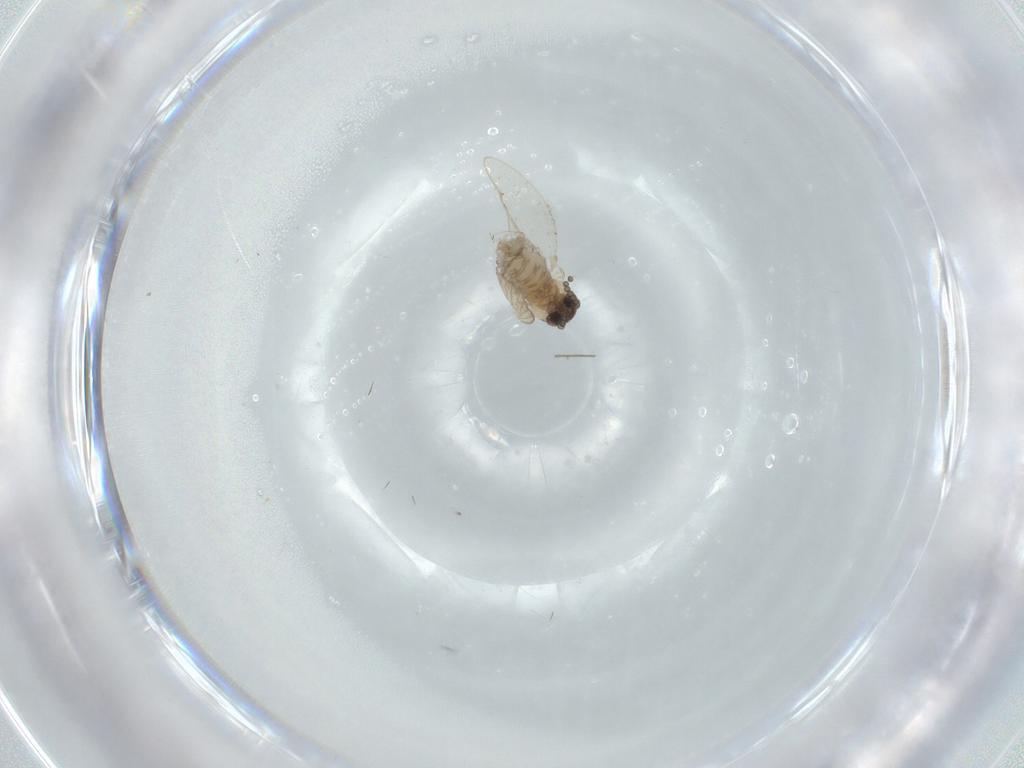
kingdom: Animalia
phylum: Arthropoda
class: Insecta
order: Diptera
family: Psychodidae
